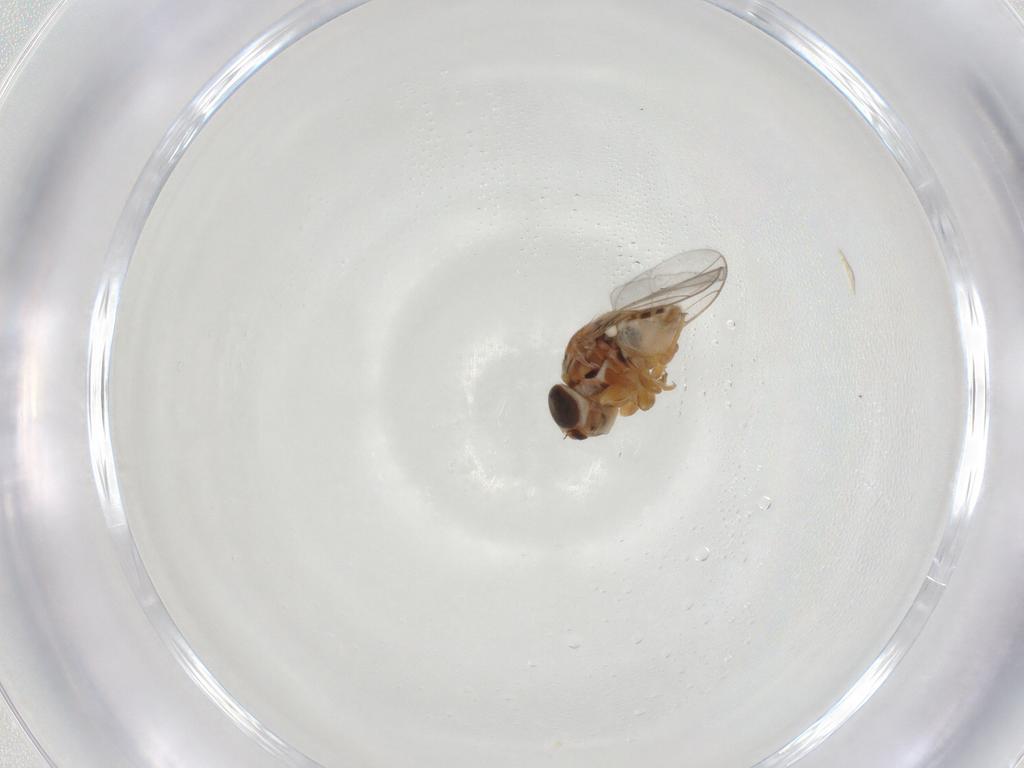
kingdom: Animalia
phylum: Arthropoda
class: Insecta
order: Diptera
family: Chloropidae
